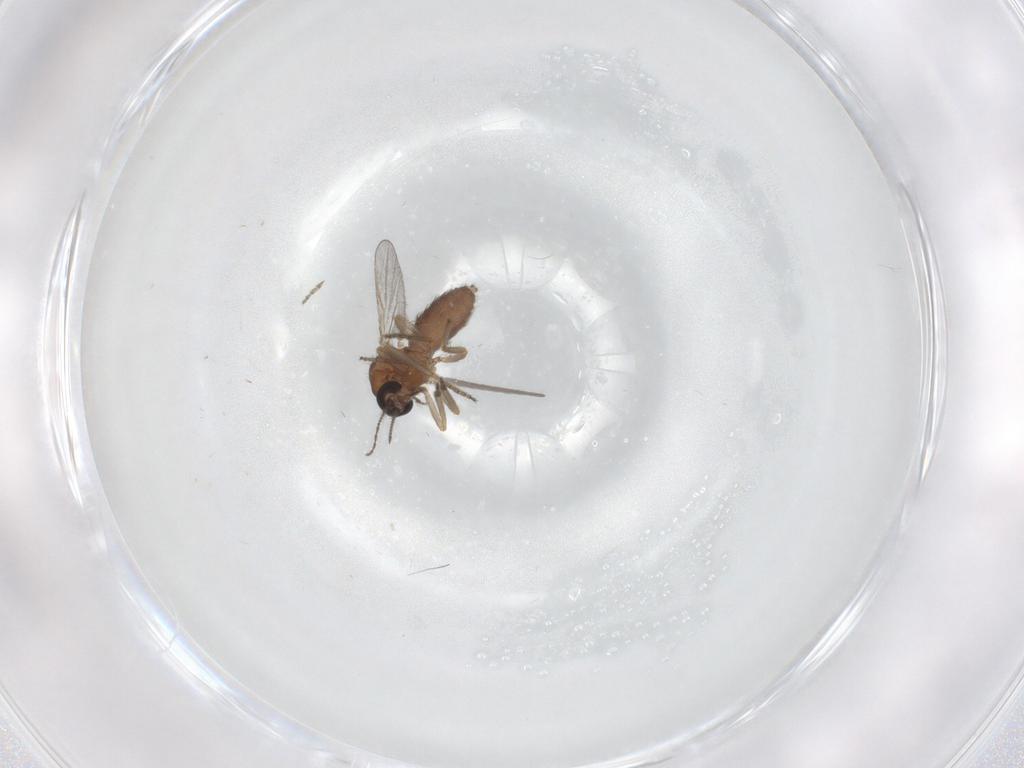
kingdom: Animalia
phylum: Arthropoda
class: Insecta
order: Diptera
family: Ceratopogonidae
